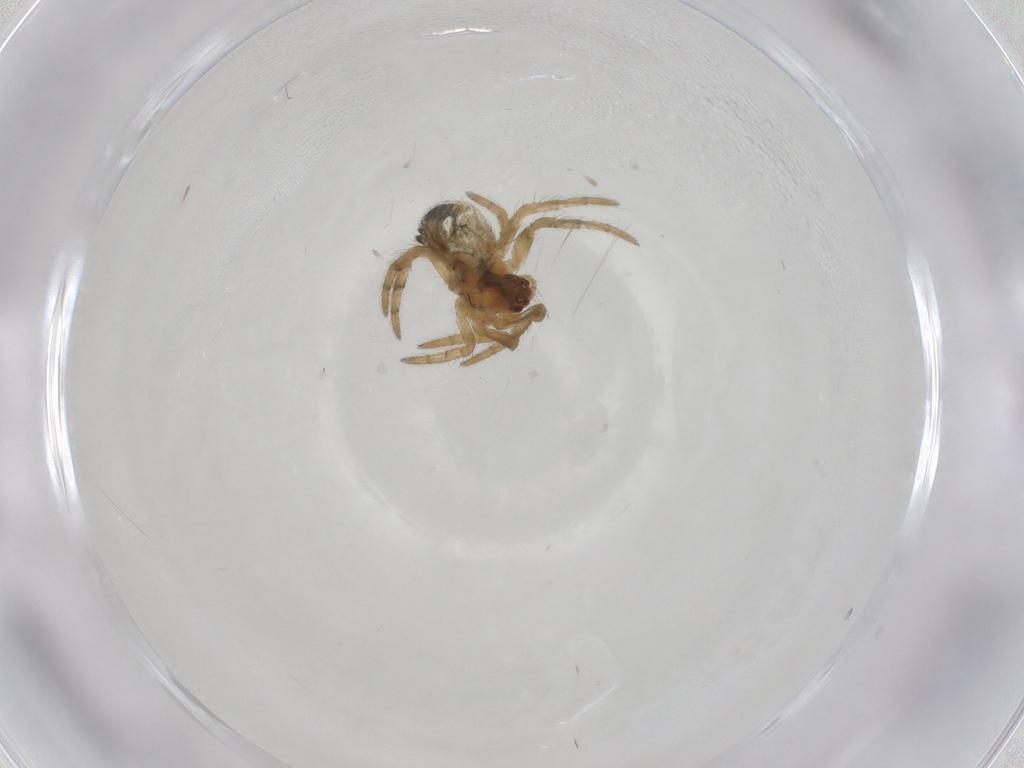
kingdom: Animalia
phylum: Arthropoda
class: Arachnida
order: Araneae
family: Araneidae
